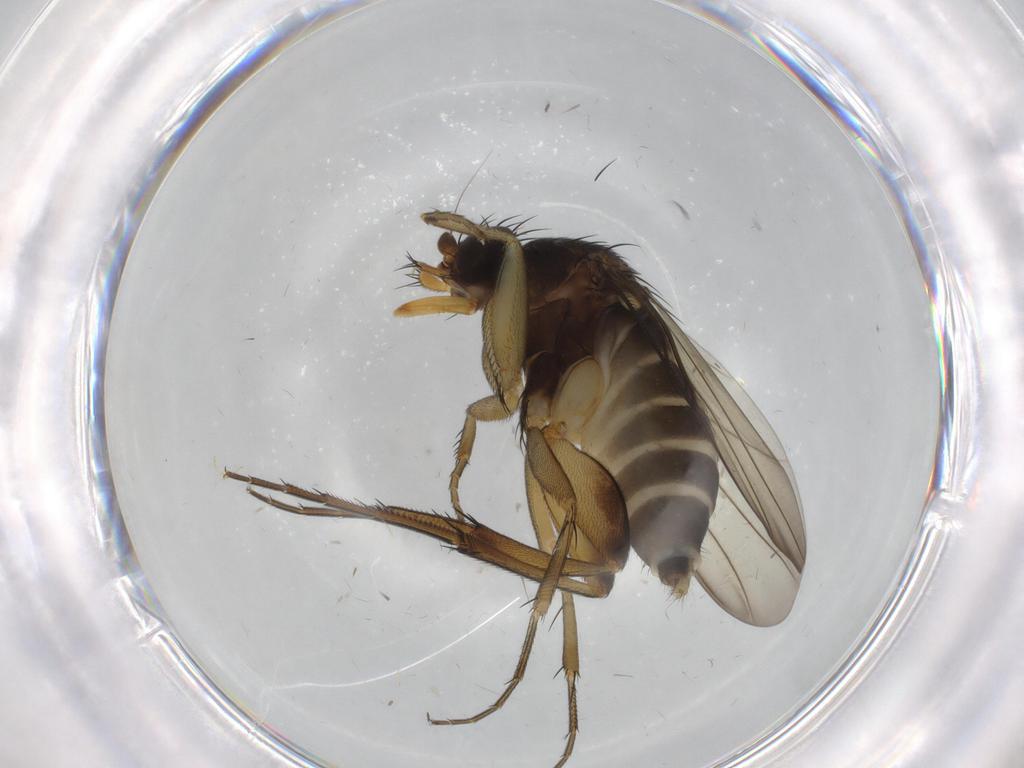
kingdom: Animalia
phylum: Arthropoda
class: Insecta
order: Diptera
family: Phoridae
